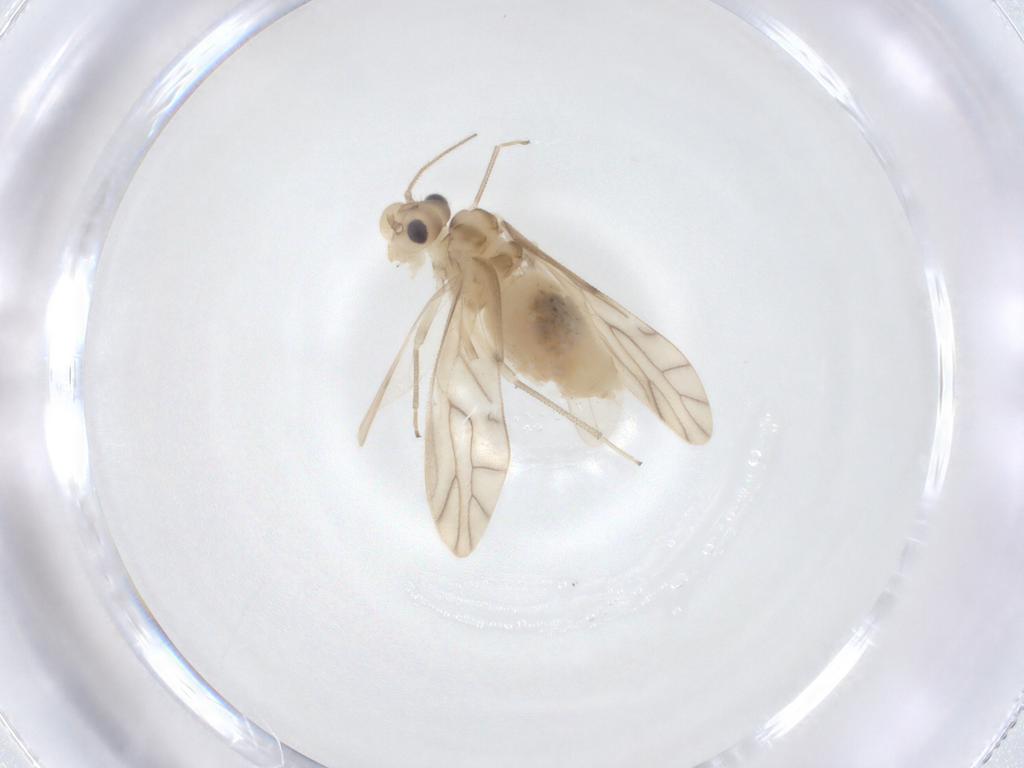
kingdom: Animalia
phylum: Arthropoda
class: Insecta
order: Psocodea
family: Caeciliusidae
